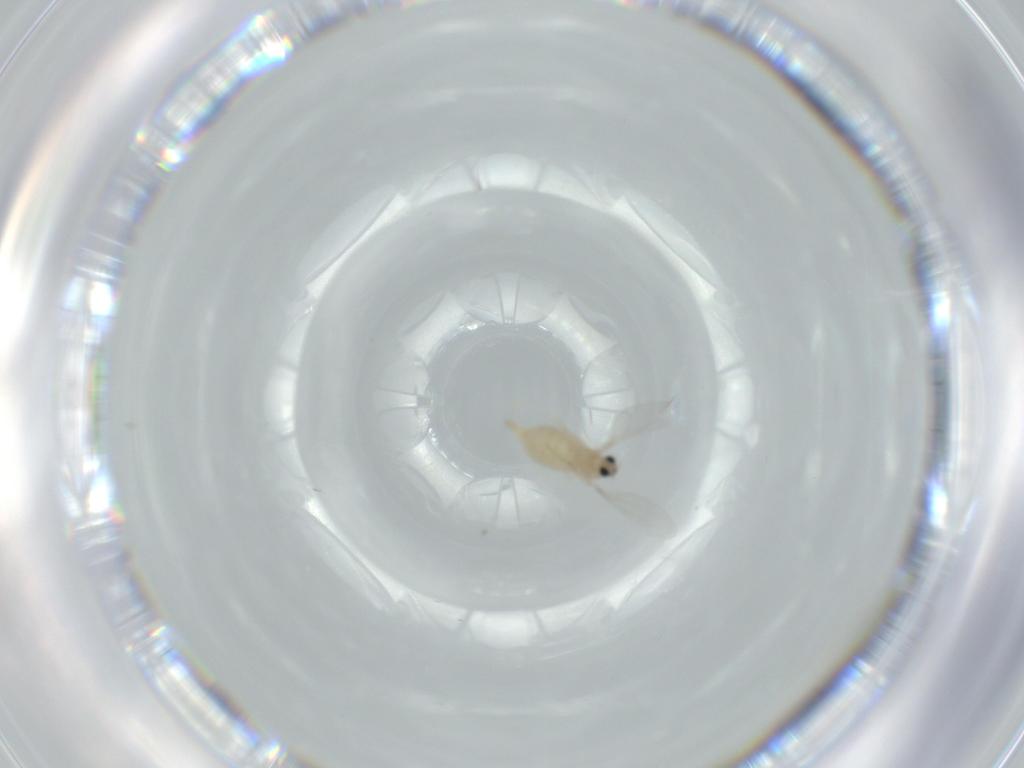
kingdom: Animalia
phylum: Arthropoda
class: Insecta
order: Diptera
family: Cecidomyiidae
